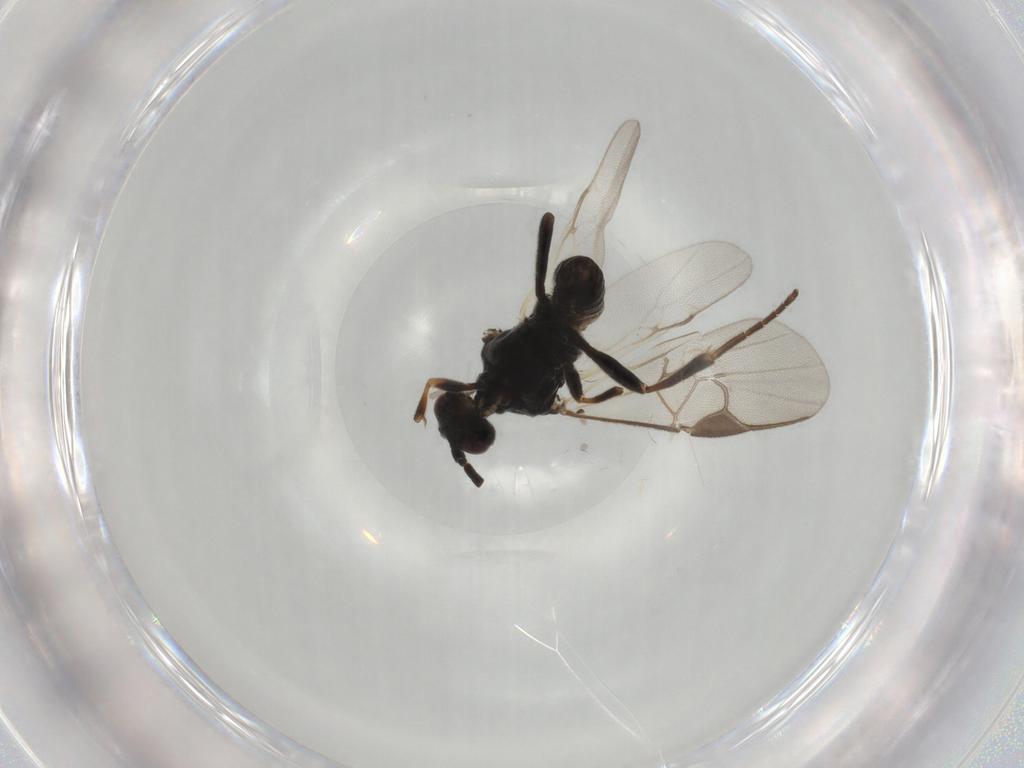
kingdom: Animalia
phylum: Arthropoda
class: Insecta
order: Hymenoptera
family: Braconidae
